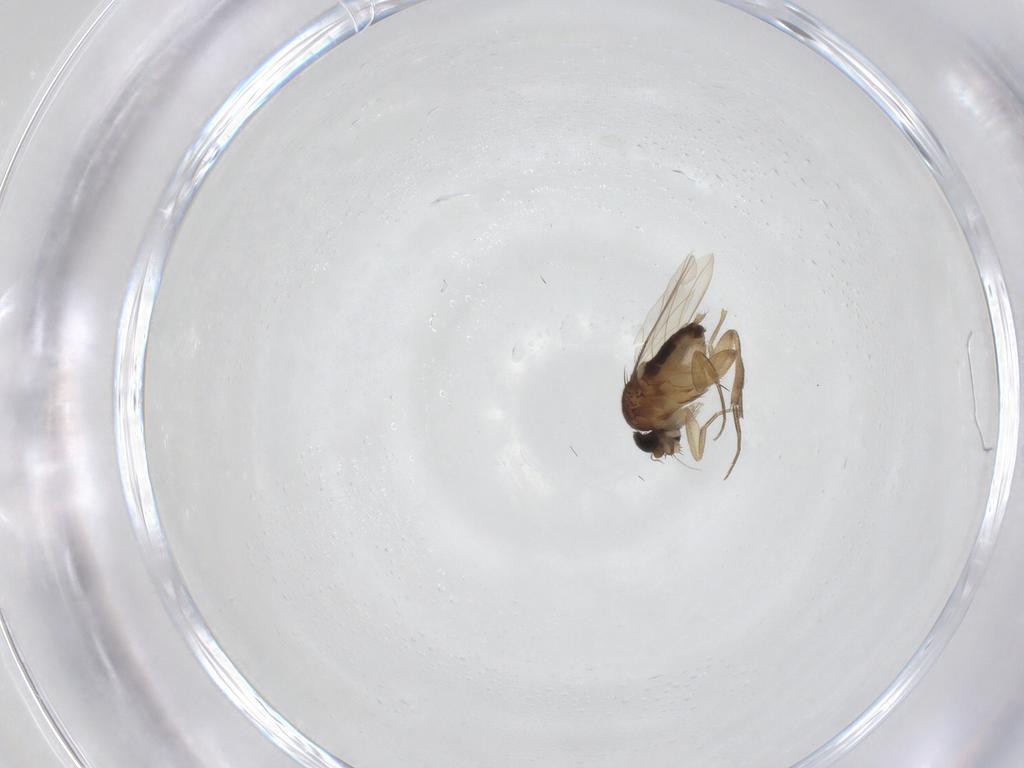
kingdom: Animalia
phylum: Arthropoda
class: Insecta
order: Diptera
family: Phoridae
